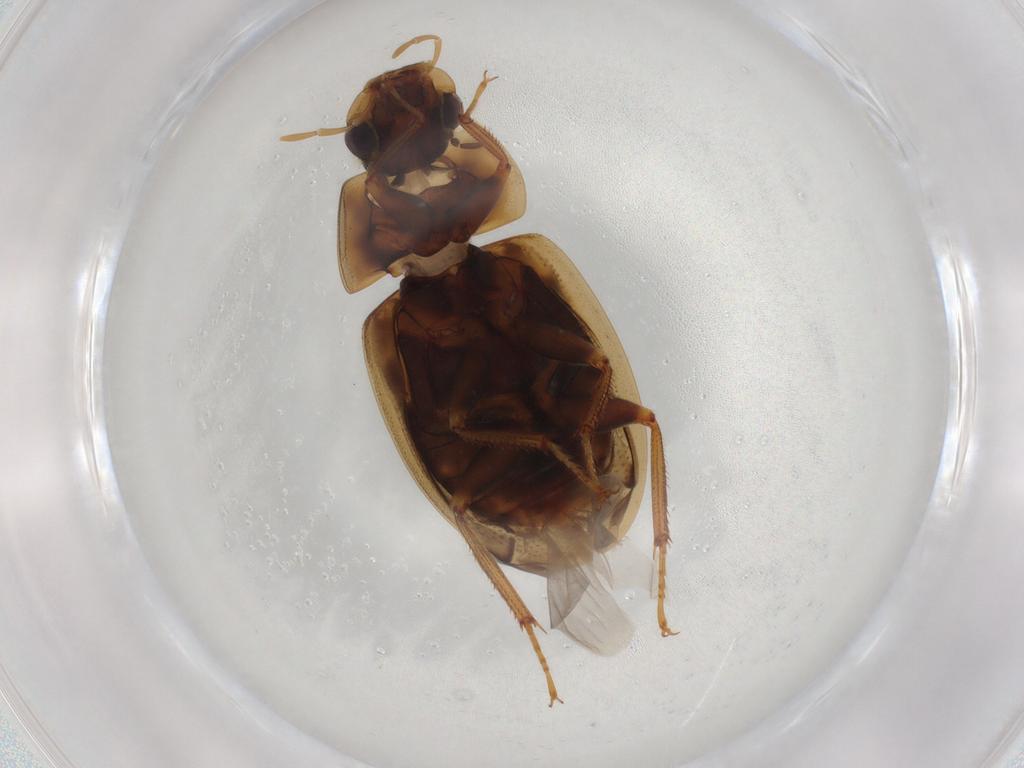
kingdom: Animalia
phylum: Arthropoda
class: Insecta
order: Coleoptera
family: Hydrophilidae
